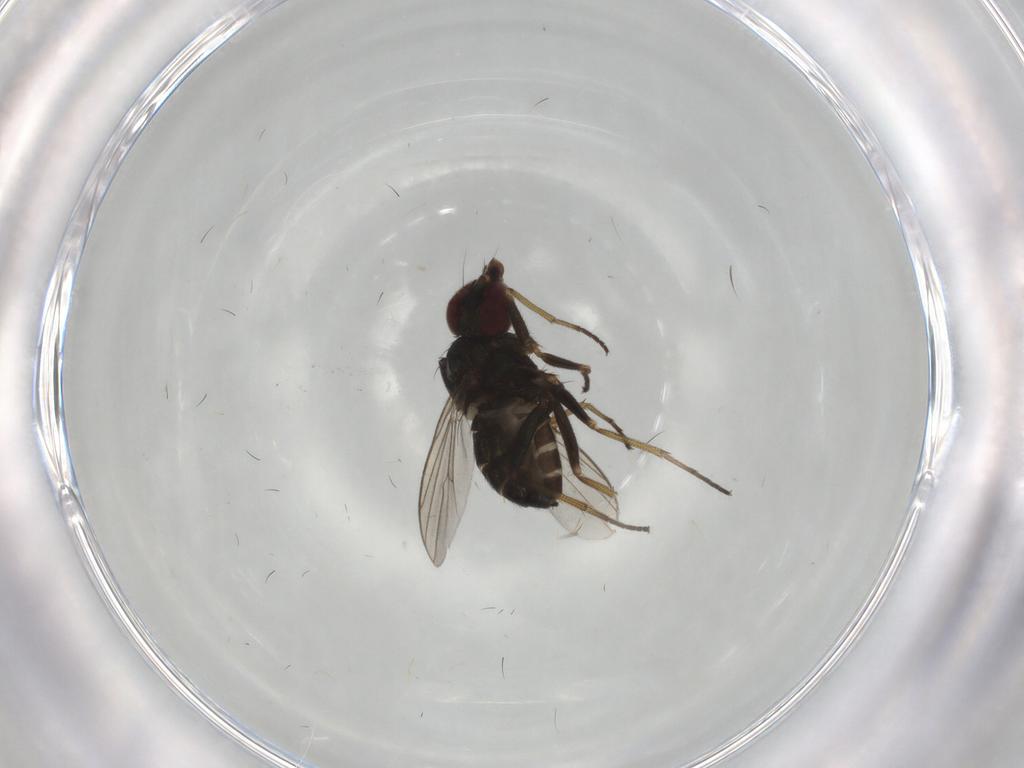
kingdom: Animalia
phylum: Arthropoda
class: Insecta
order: Diptera
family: Dolichopodidae
